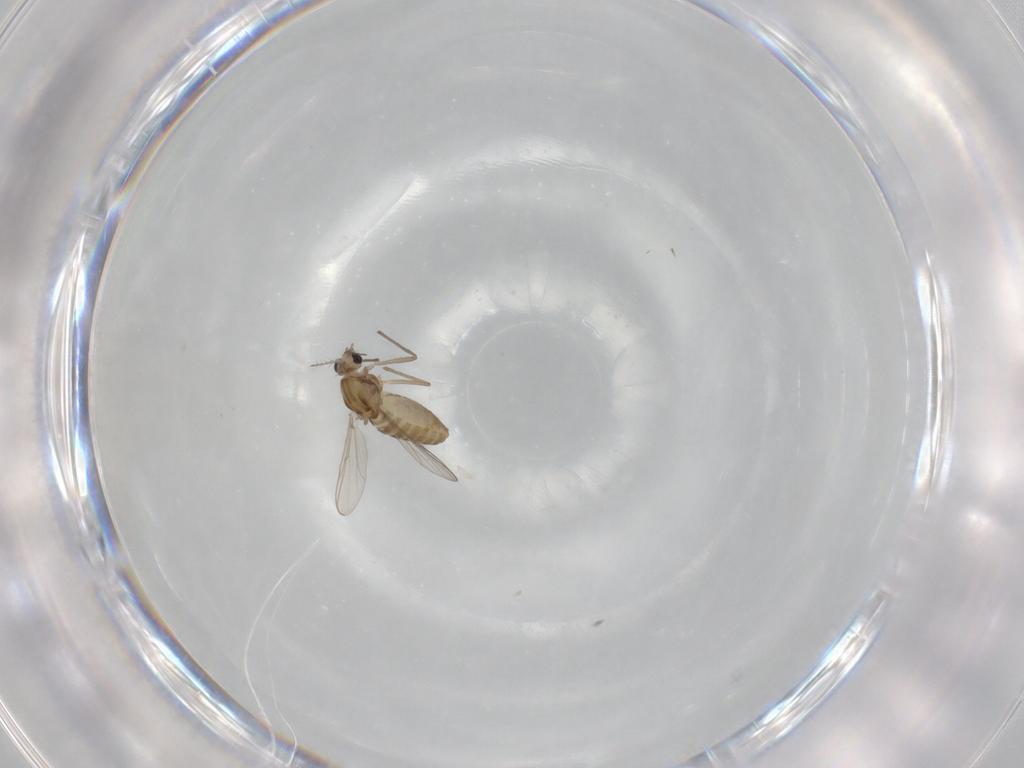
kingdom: Animalia
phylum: Arthropoda
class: Insecta
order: Diptera
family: Chironomidae
